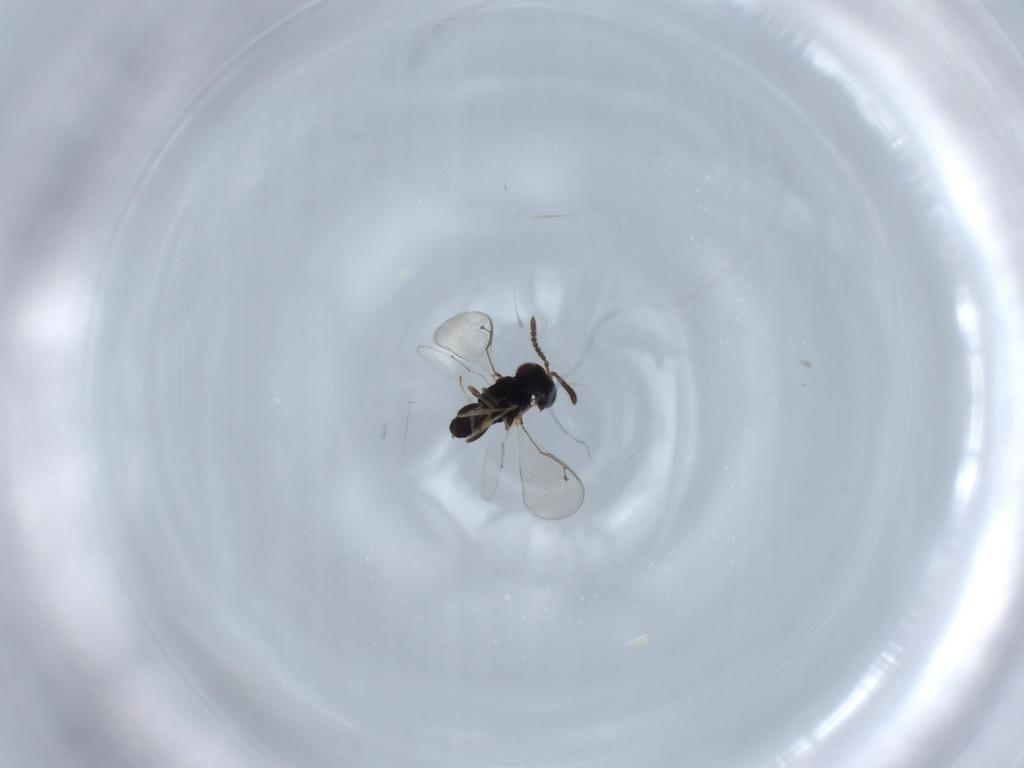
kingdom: Animalia
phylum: Arthropoda
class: Insecta
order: Hymenoptera
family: Pteromalidae
